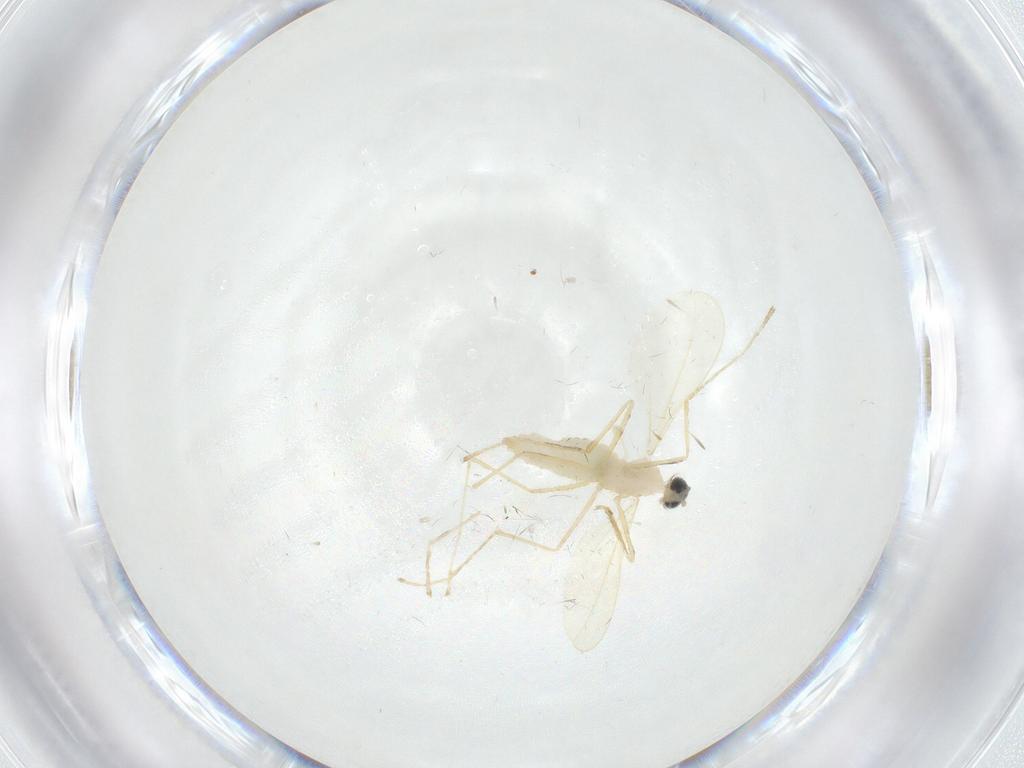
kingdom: Animalia
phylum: Arthropoda
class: Insecta
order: Diptera
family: Cecidomyiidae
